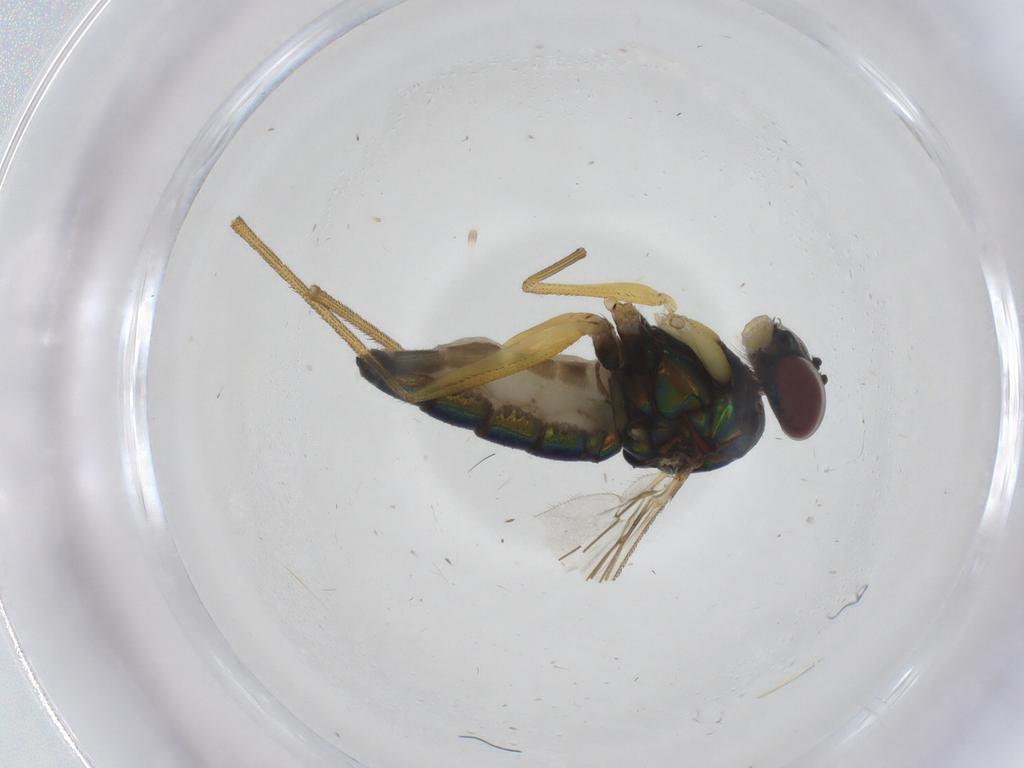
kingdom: Animalia
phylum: Arthropoda
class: Insecta
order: Diptera
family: Dolichopodidae
